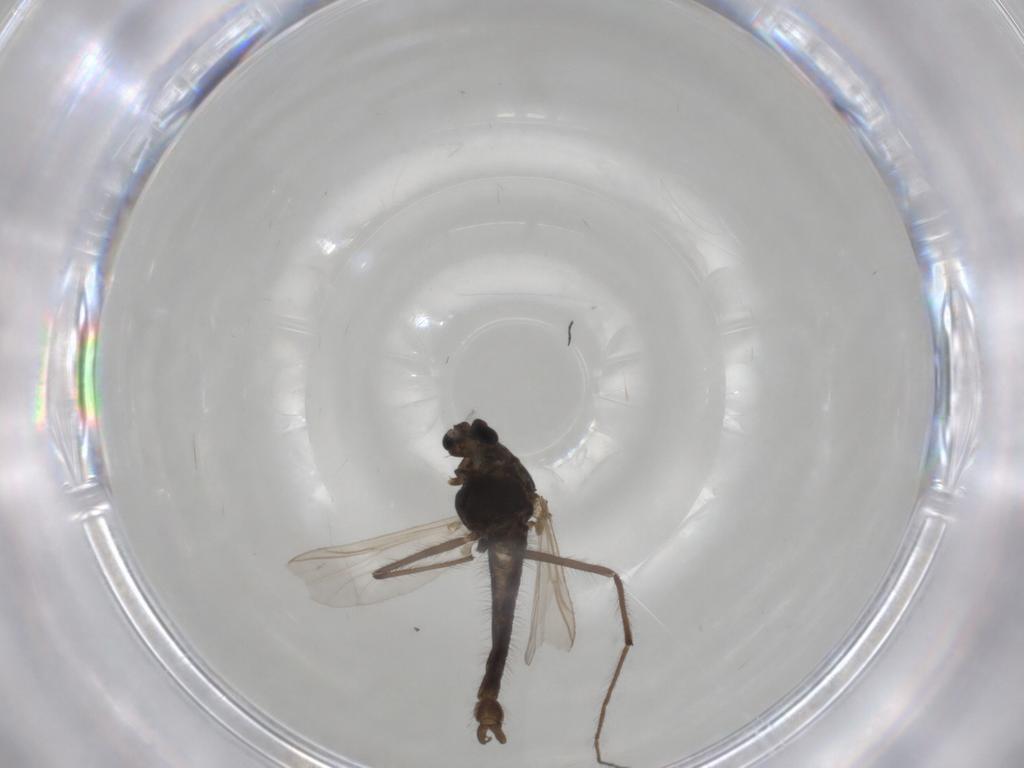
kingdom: Animalia
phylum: Arthropoda
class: Insecta
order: Diptera
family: Chironomidae
